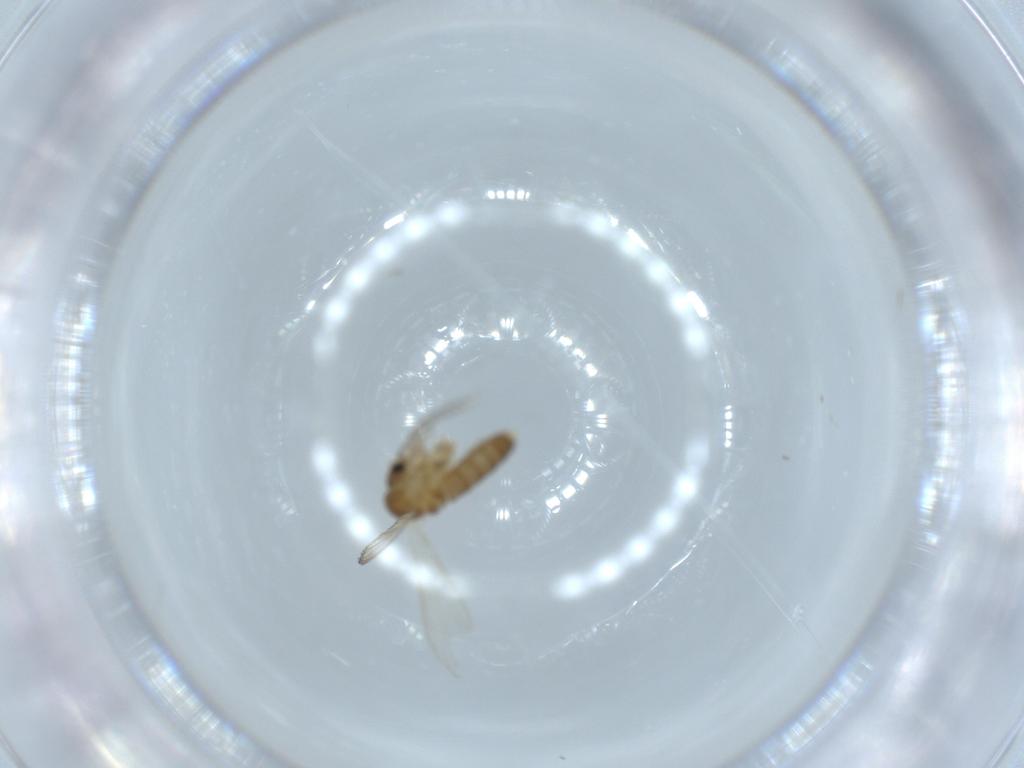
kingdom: Animalia
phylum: Arthropoda
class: Insecta
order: Diptera
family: Psychodidae
